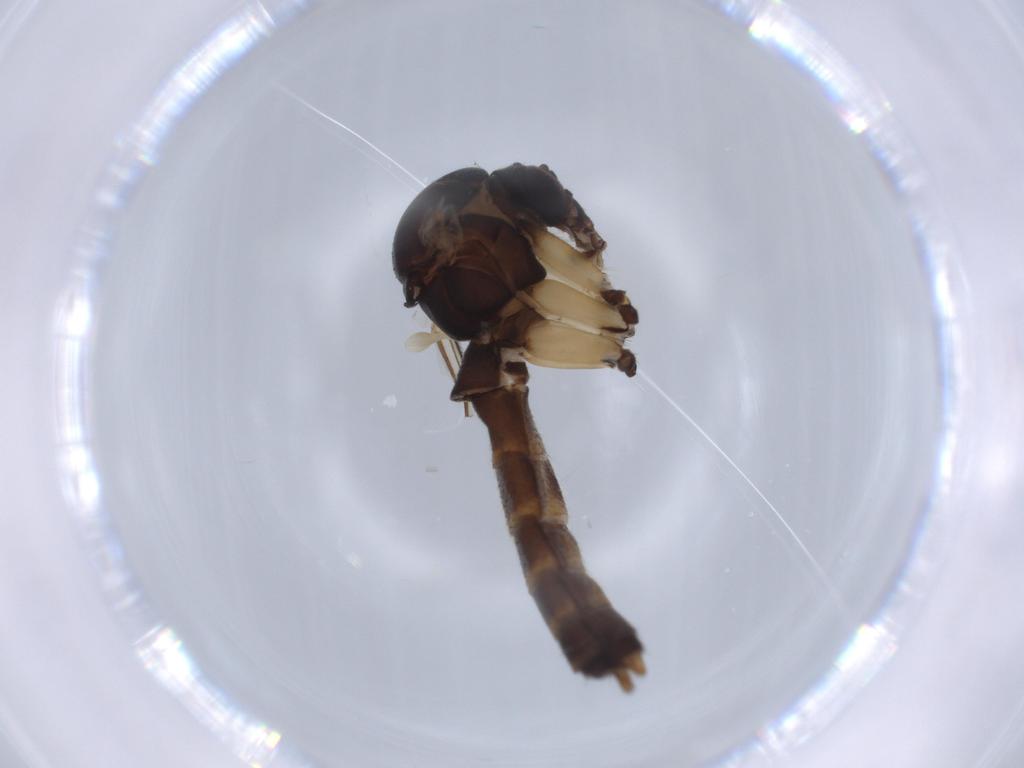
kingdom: Animalia
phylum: Arthropoda
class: Insecta
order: Diptera
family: Mycetophilidae
